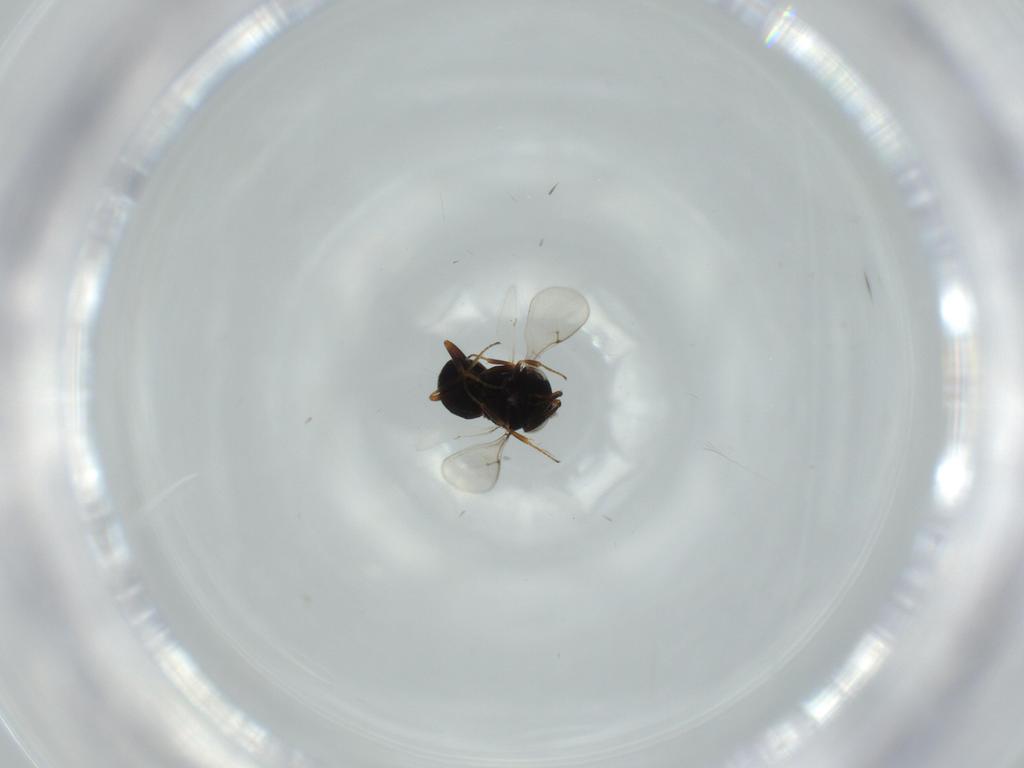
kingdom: Animalia
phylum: Arthropoda
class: Insecta
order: Hymenoptera
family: Scelionidae
